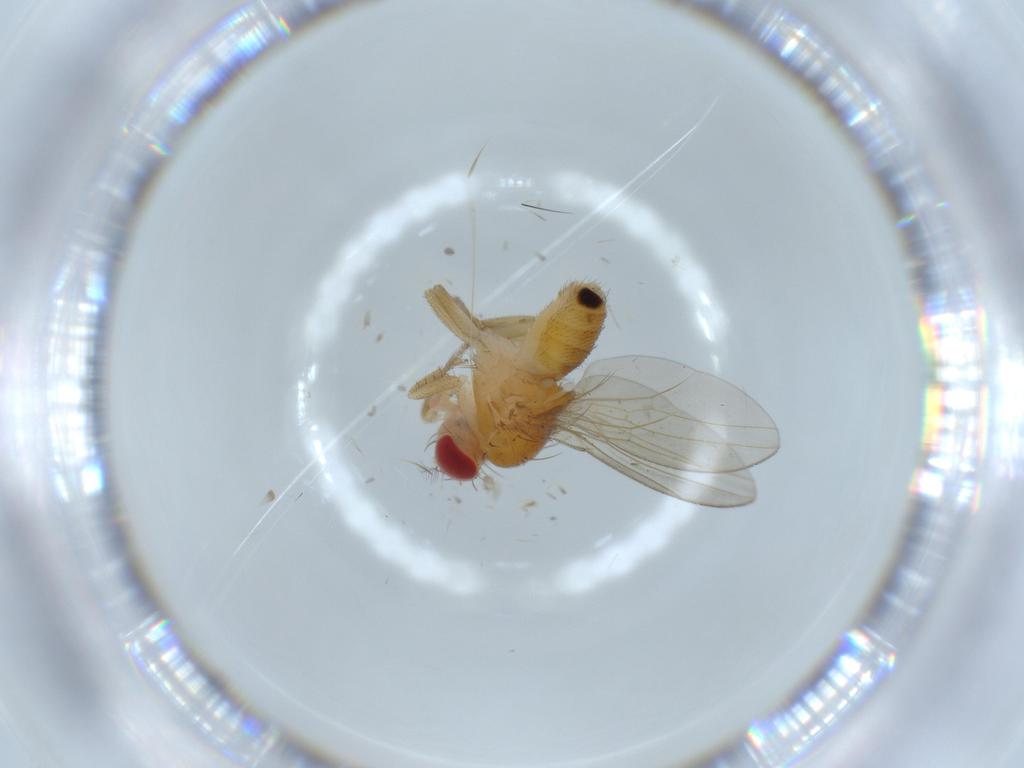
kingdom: Animalia
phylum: Arthropoda
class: Insecta
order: Diptera
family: Drosophilidae
